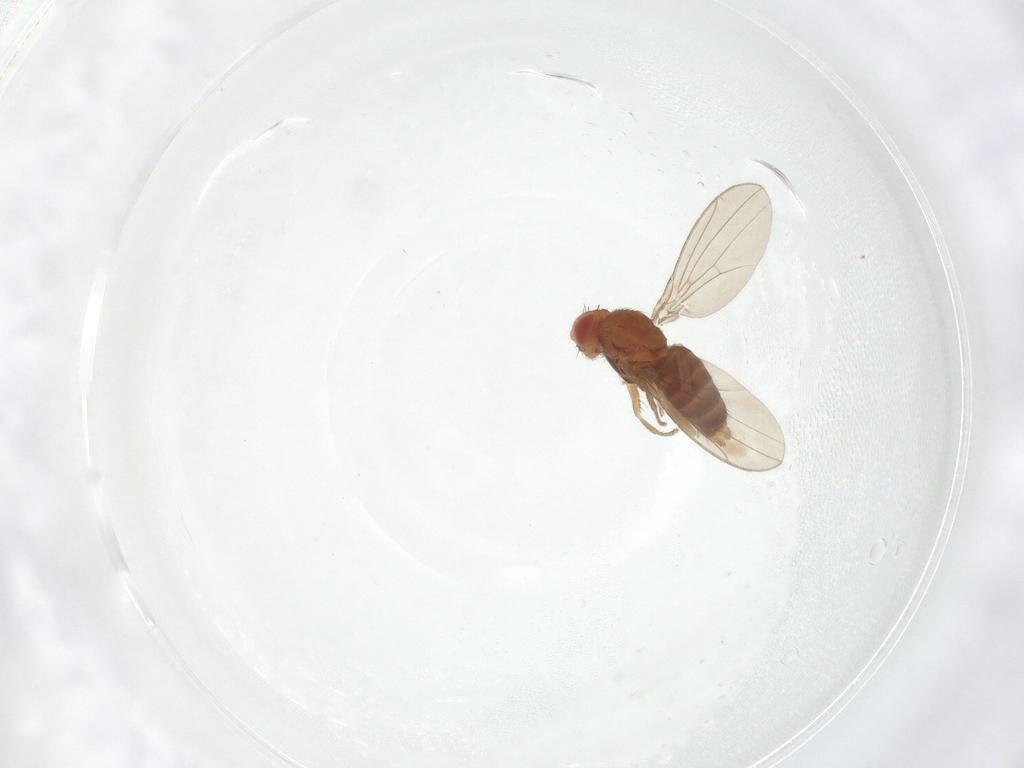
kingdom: Animalia
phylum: Arthropoda
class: Insecta
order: Diptera
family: Ephydridae
